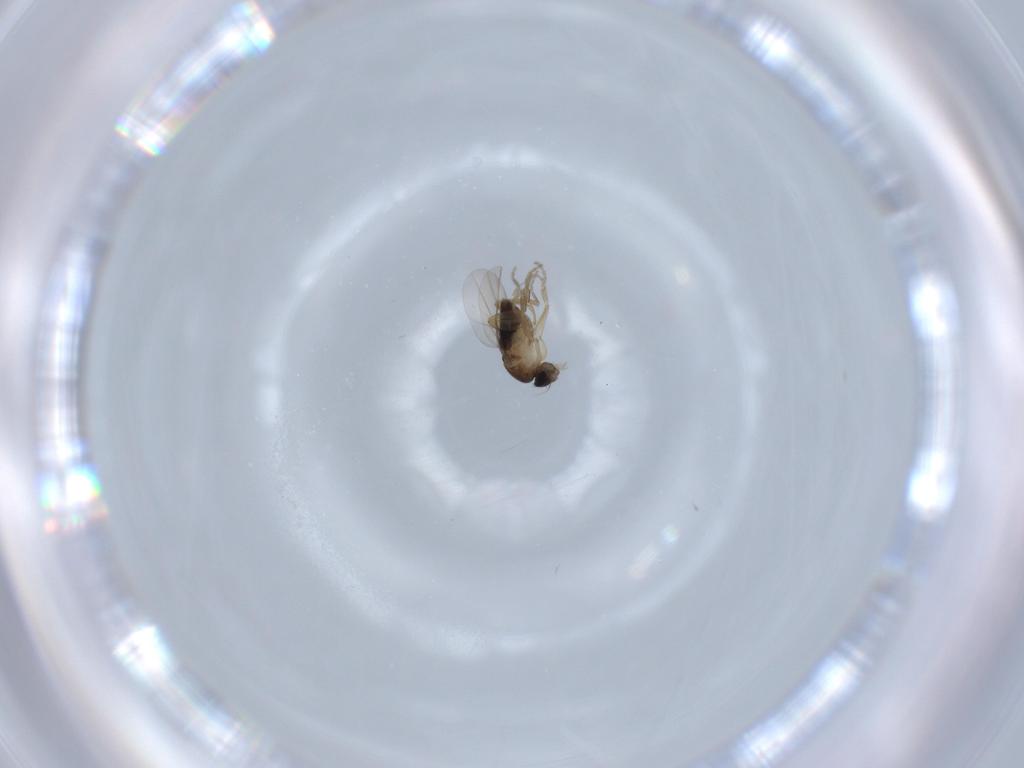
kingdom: Animalia
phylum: Arthropoda
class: Insecta
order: Diptera
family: Phoridae
